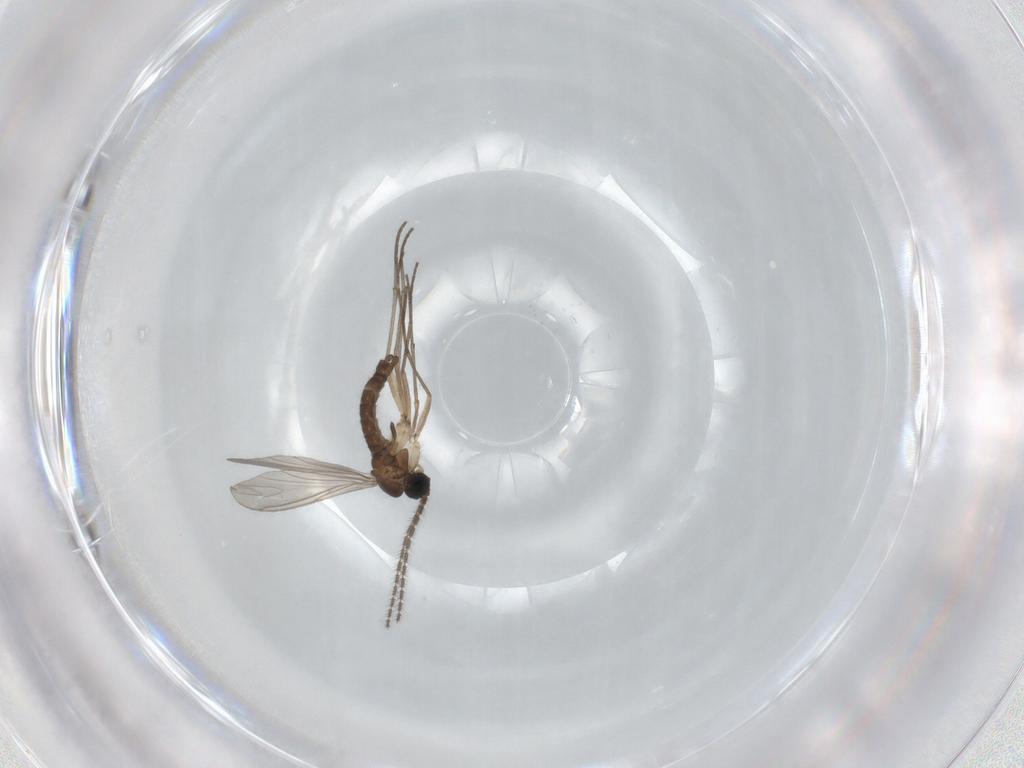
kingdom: Animalia
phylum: Arthropoda
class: Insecta
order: Diptera
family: Sciaridae
